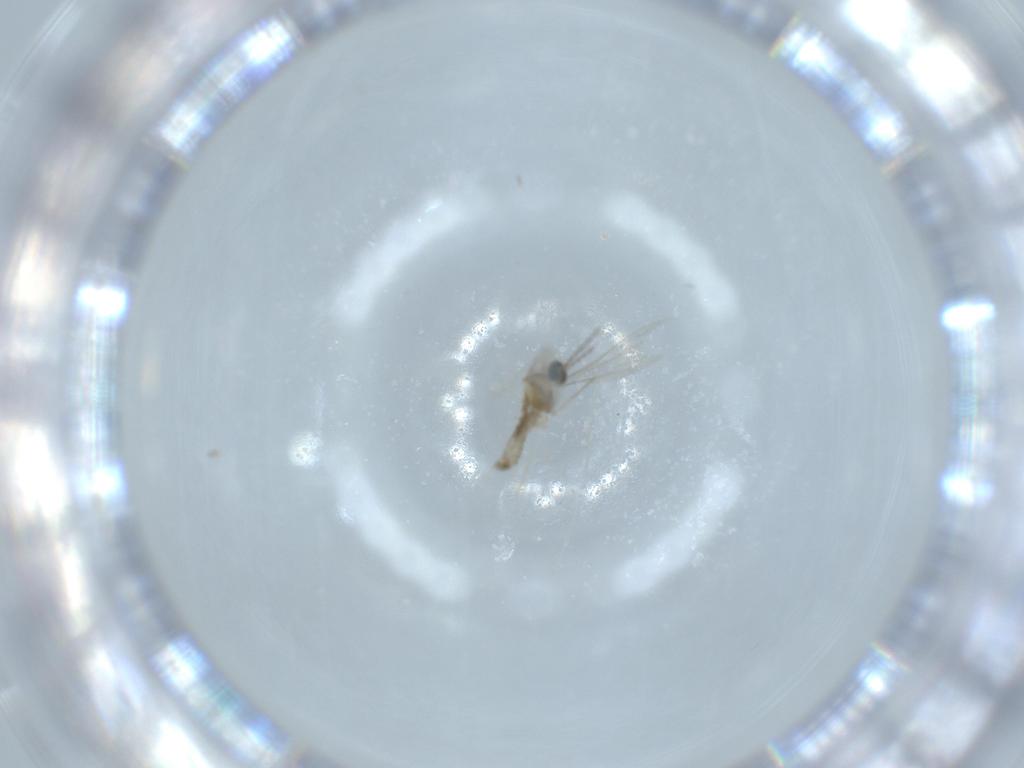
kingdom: Animalia
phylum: Arthropoda
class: Insecta
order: Diptera
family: Cecidomyiidae
